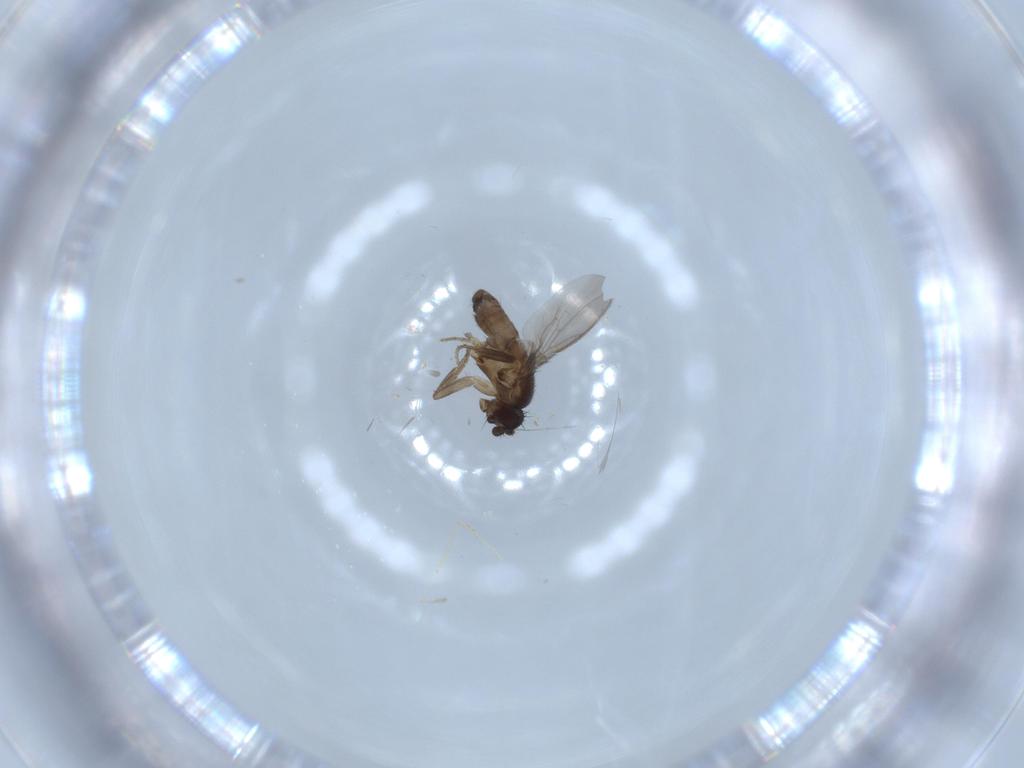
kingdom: Animalia
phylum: Arthropoda
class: Insecta
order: Diptera
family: Sphaeroceridae
